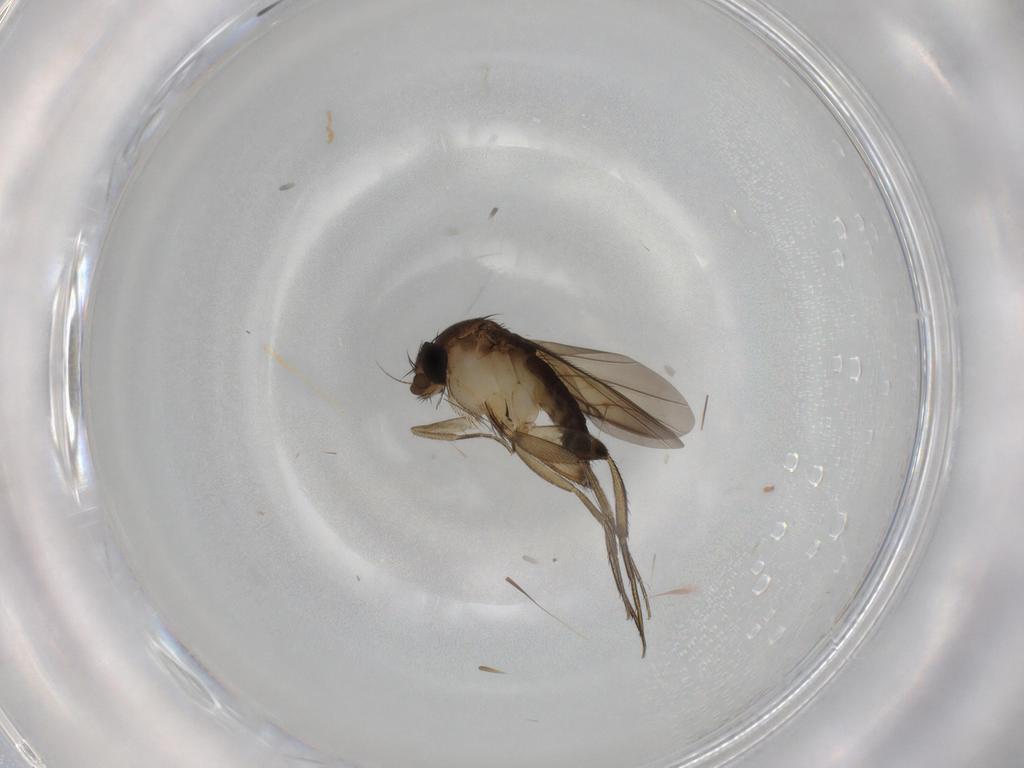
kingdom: Animalia
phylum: Arthropoda
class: Insecta
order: Diptera
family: Phoridae
